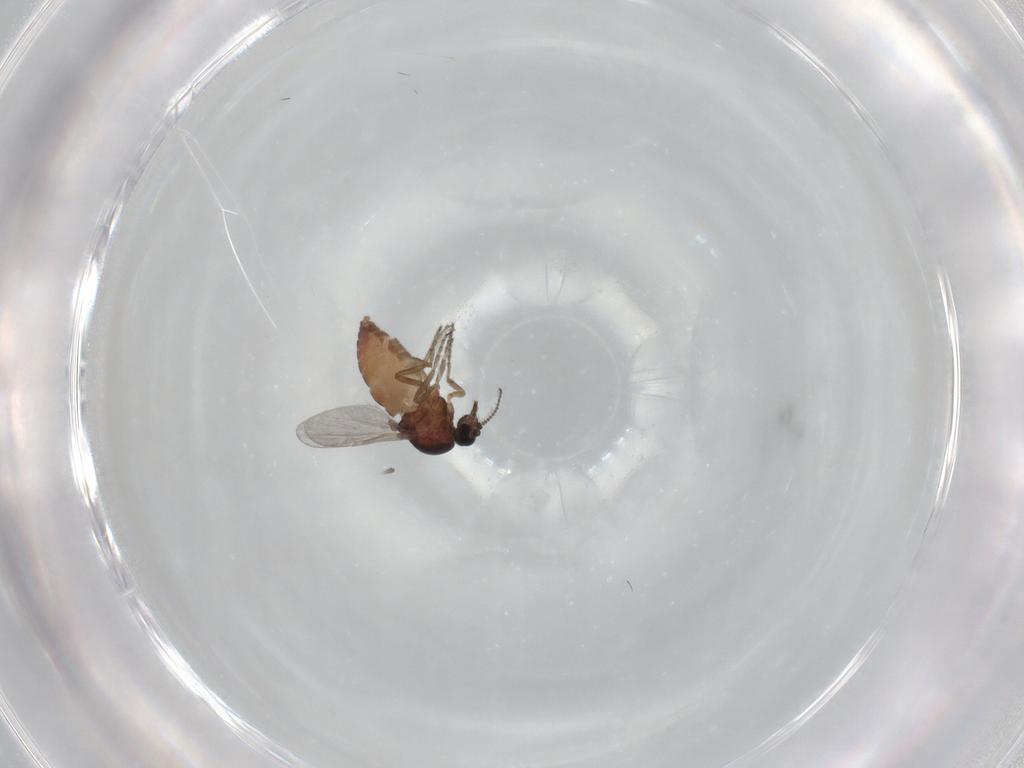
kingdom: Animalia
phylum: Arthropoda
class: Insecta
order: Diptera
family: Ceratopogonidae
